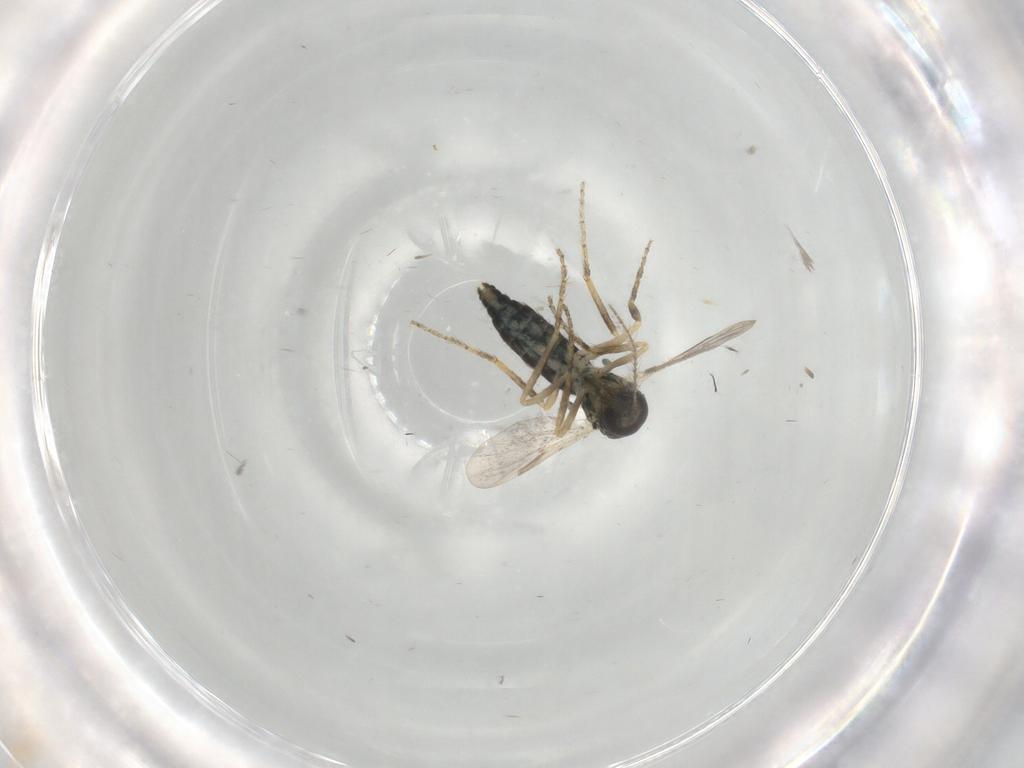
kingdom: Animalia
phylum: Arthropoda
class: Insecta
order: Diptera
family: Ceratopogonidae
